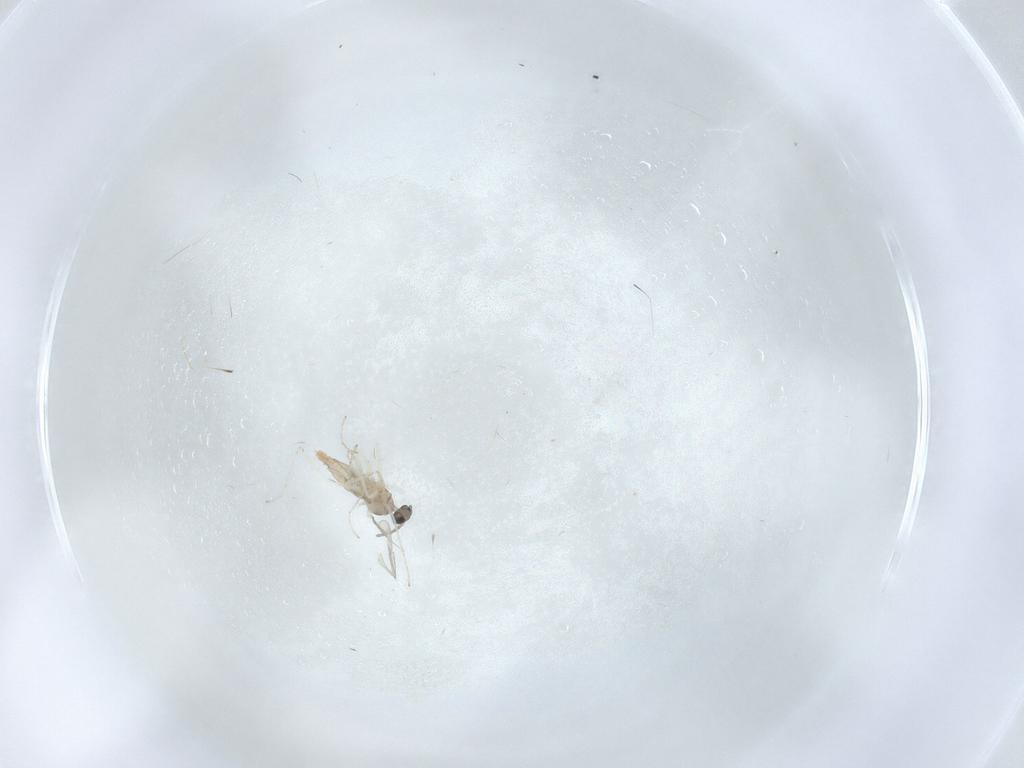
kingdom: Animalia
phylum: Arthropoda
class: Insecta
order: Diptera
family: Cecidomyiidae
